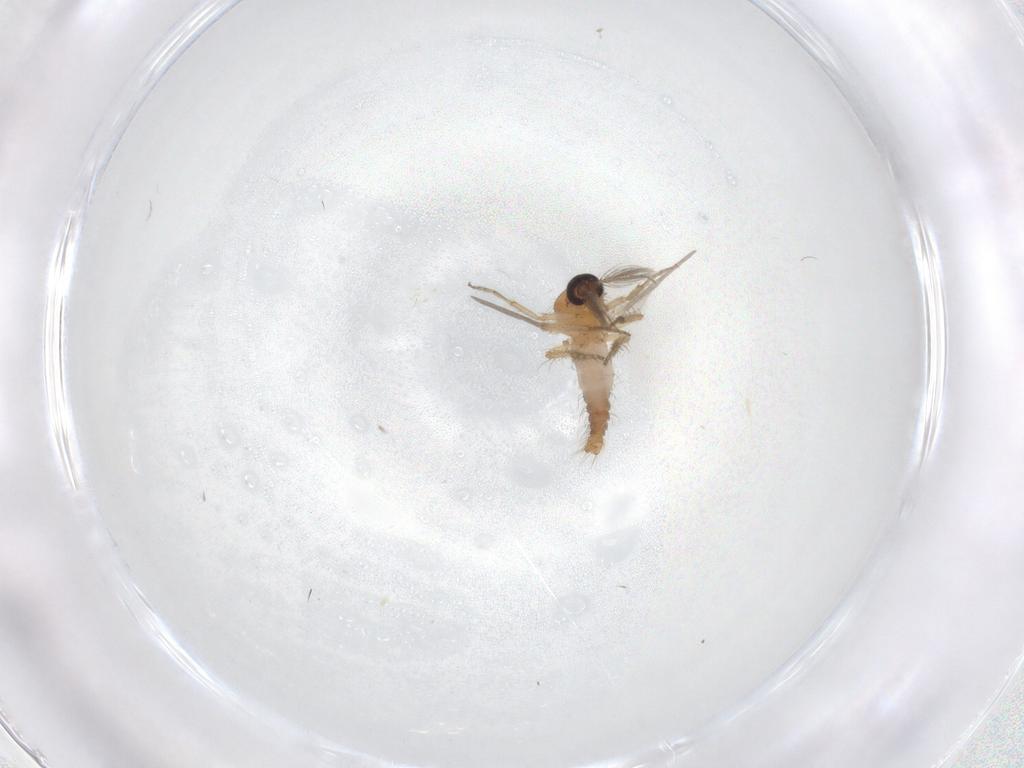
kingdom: Animalia
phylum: Arthropoda
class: Insecta
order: Diptera
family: Ceratopogonidae
